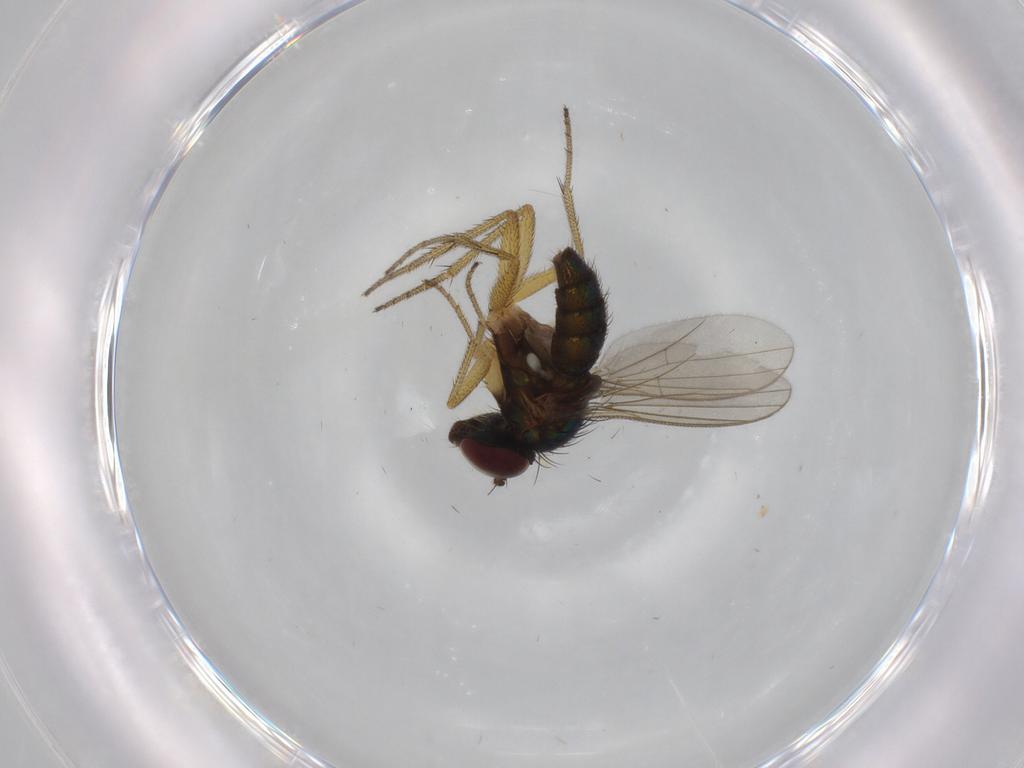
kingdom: Animalia
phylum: Arthropoda
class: Insecta
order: Diptera
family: Dolichopodidae
